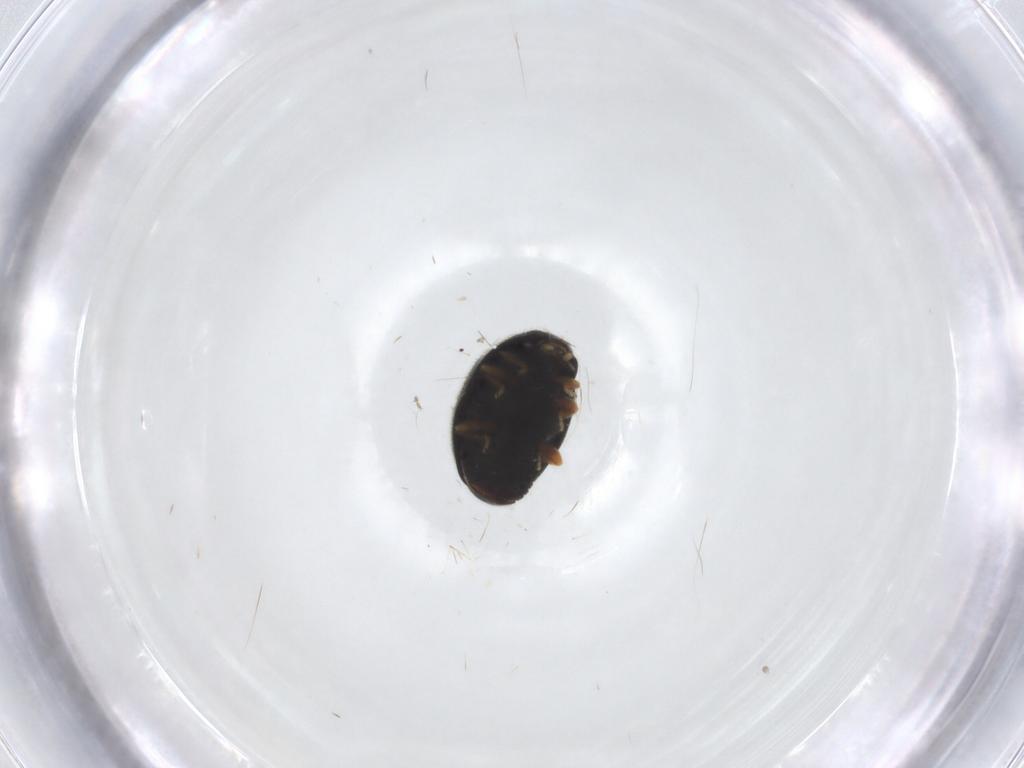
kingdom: Animalia
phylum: Arthropoda
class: Insecta
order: Coleoptera
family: Coccinellidae
